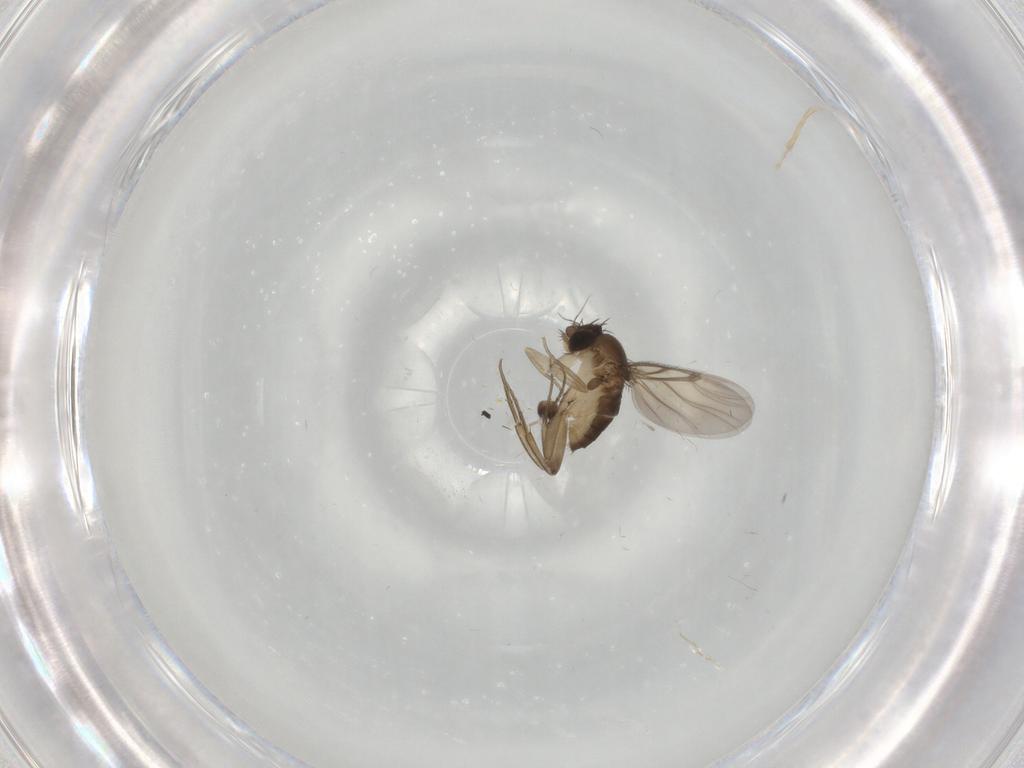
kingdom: Animalia
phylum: Arthropoda
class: Insecta
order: Diptera
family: Phoridae
